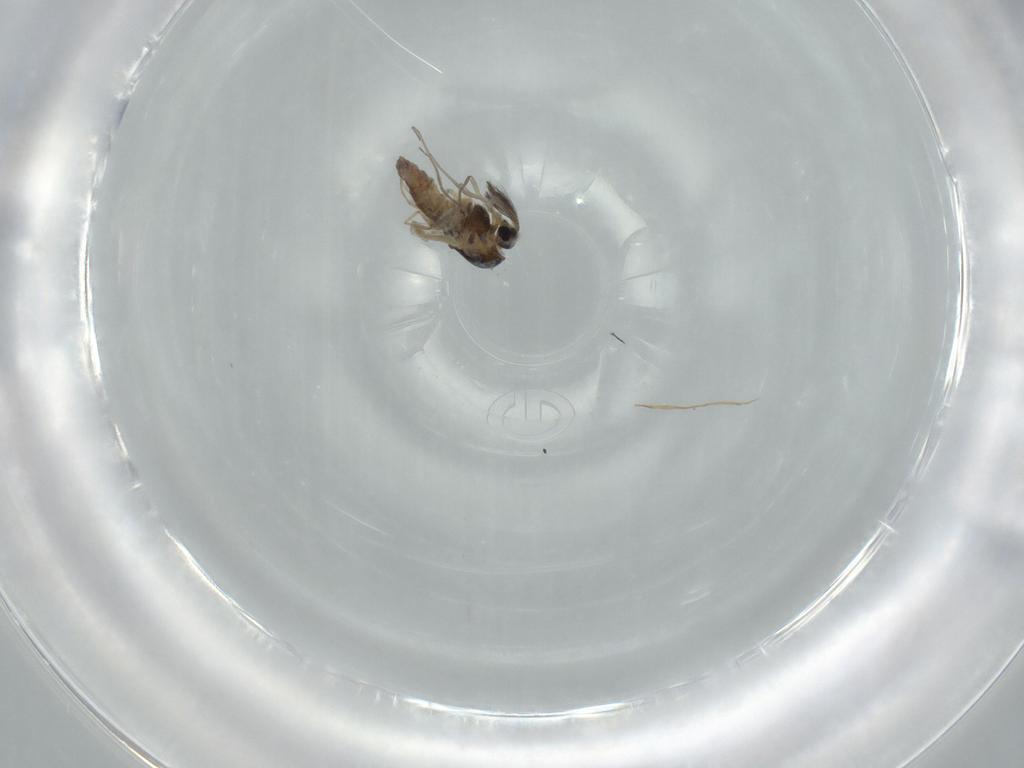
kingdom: Animalia
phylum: Arthropoda
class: Insecta
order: Diptera
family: Chironomidae
